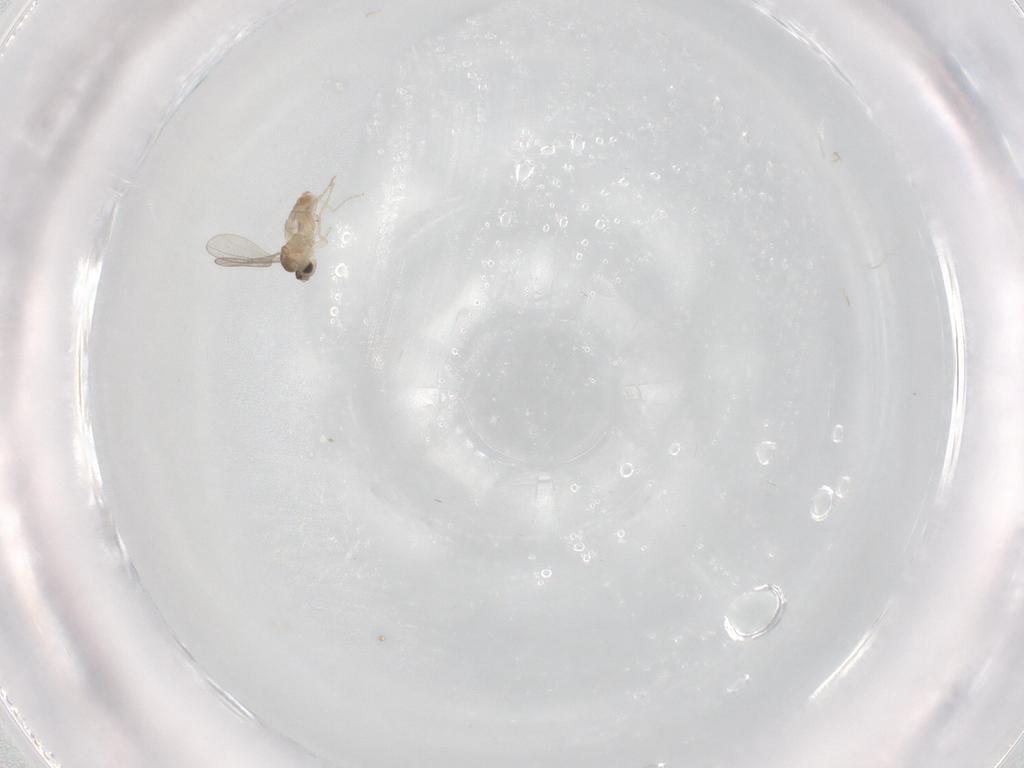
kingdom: Animalia
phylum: Arthropoda
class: Insecta
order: Diptera
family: Cecidomyiidae
